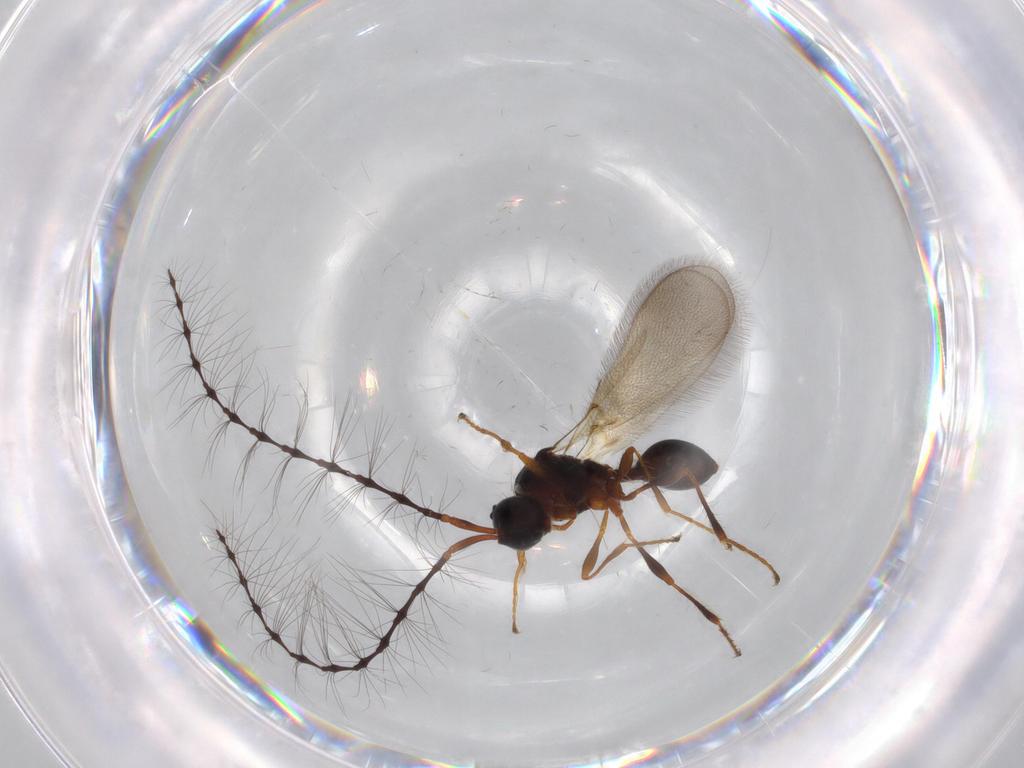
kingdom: Animalia
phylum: Arthropoda
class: Insecta
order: Hymenoptera
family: Diapriidae
